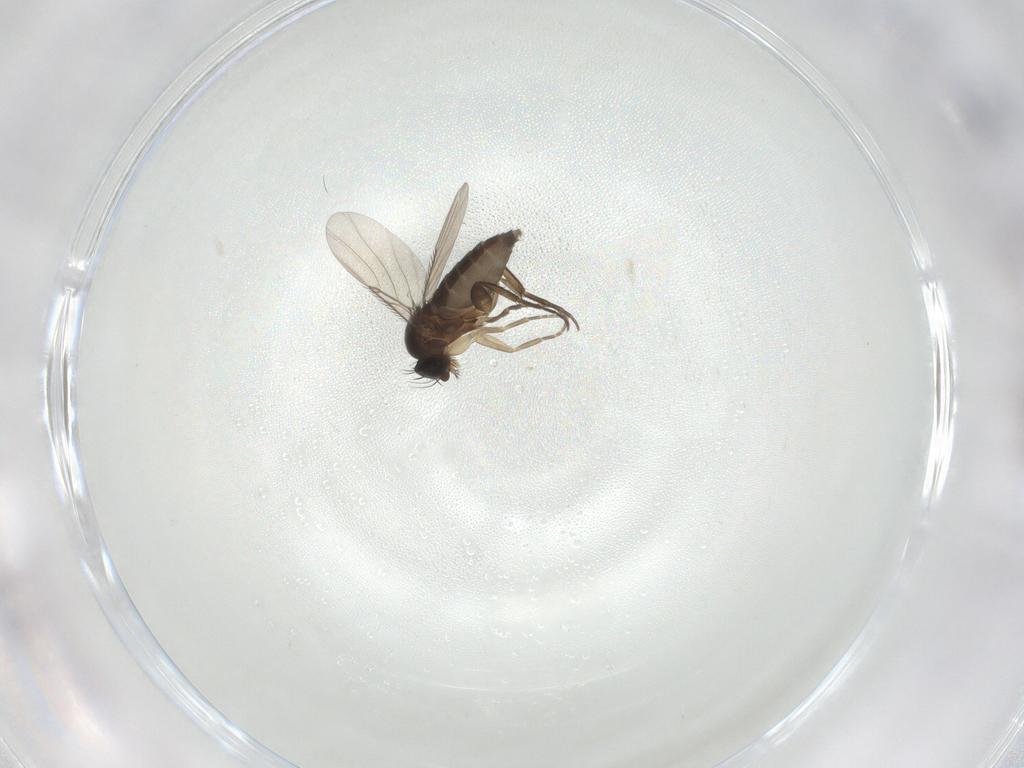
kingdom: Animalia
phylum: Arthropoda
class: Insecta
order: Diptera
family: Phoridae
